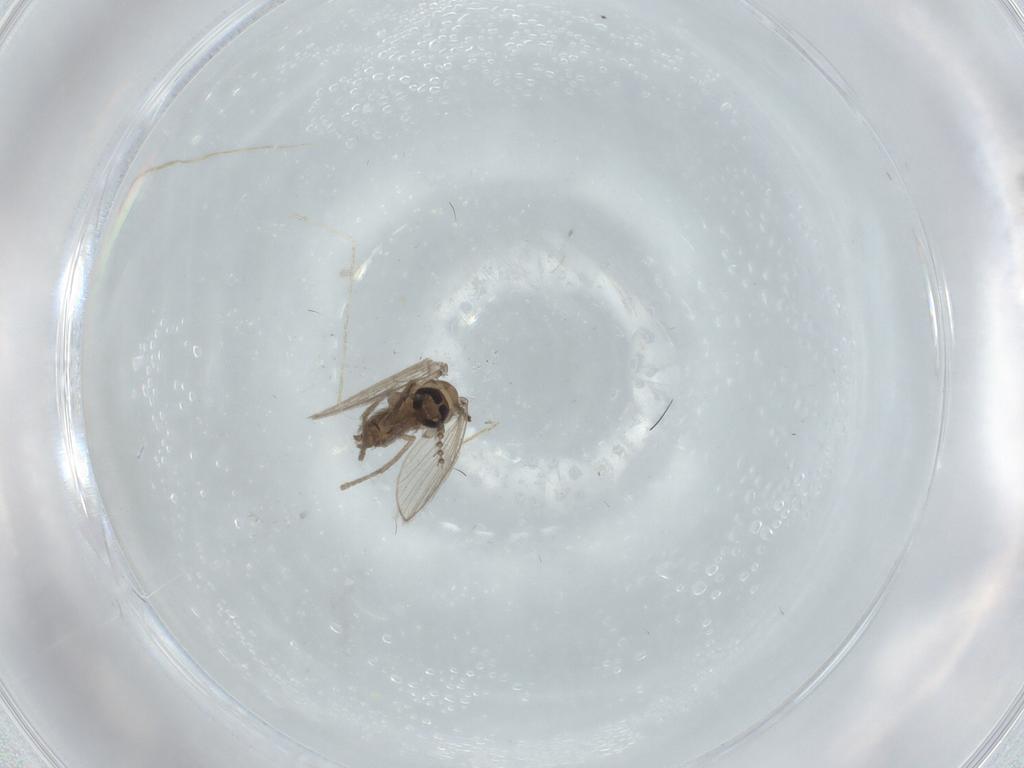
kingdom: Animalia
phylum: Arthropoda
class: Insecta
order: Diptera
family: Psychodidae
